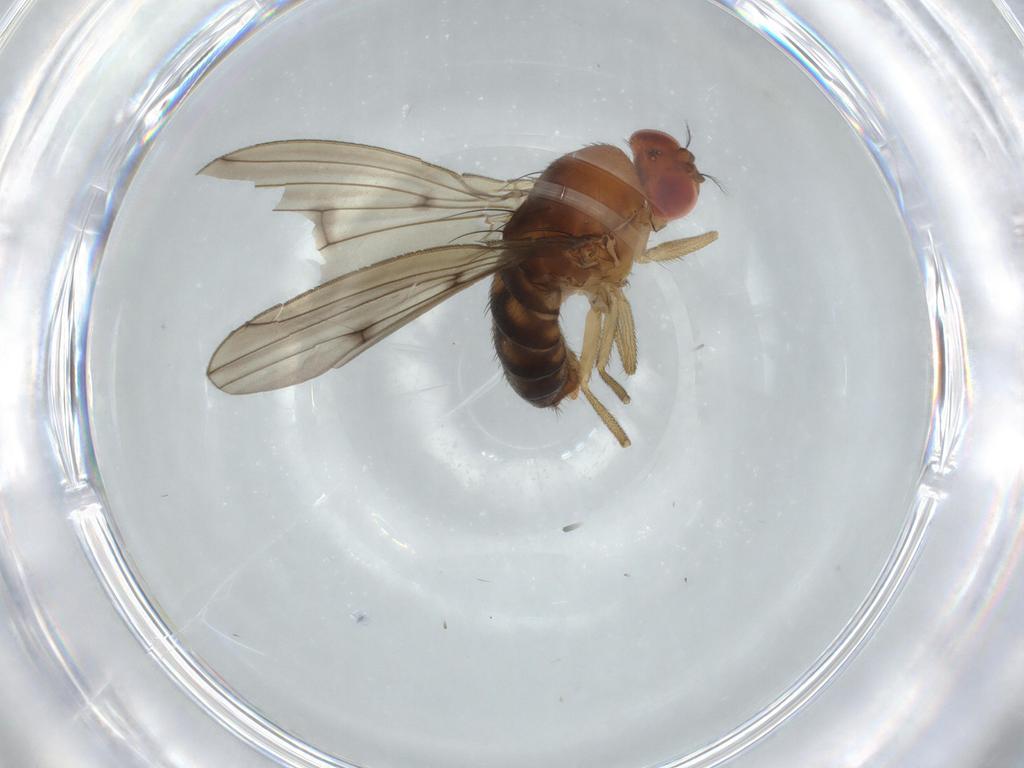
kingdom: Animalia
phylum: Arthropoda
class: Insecta
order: Diptera
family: Drosophilidae
